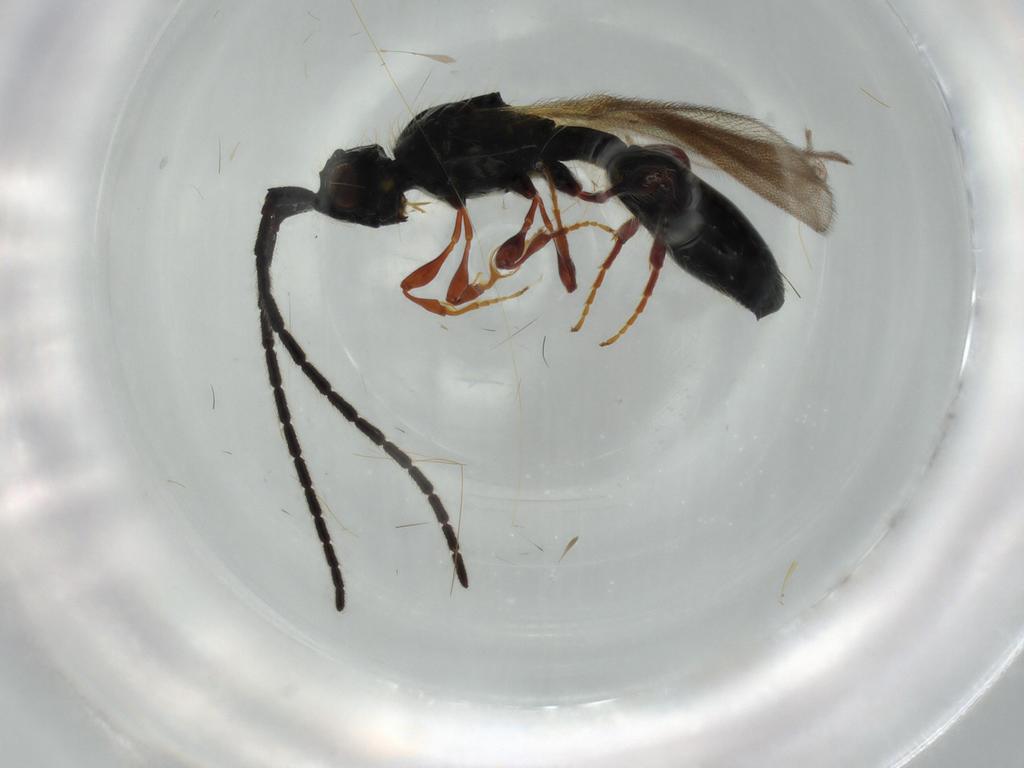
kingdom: Animalia
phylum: Arthropoda
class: Insecta
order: Hymenoptera
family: Diapriidae
